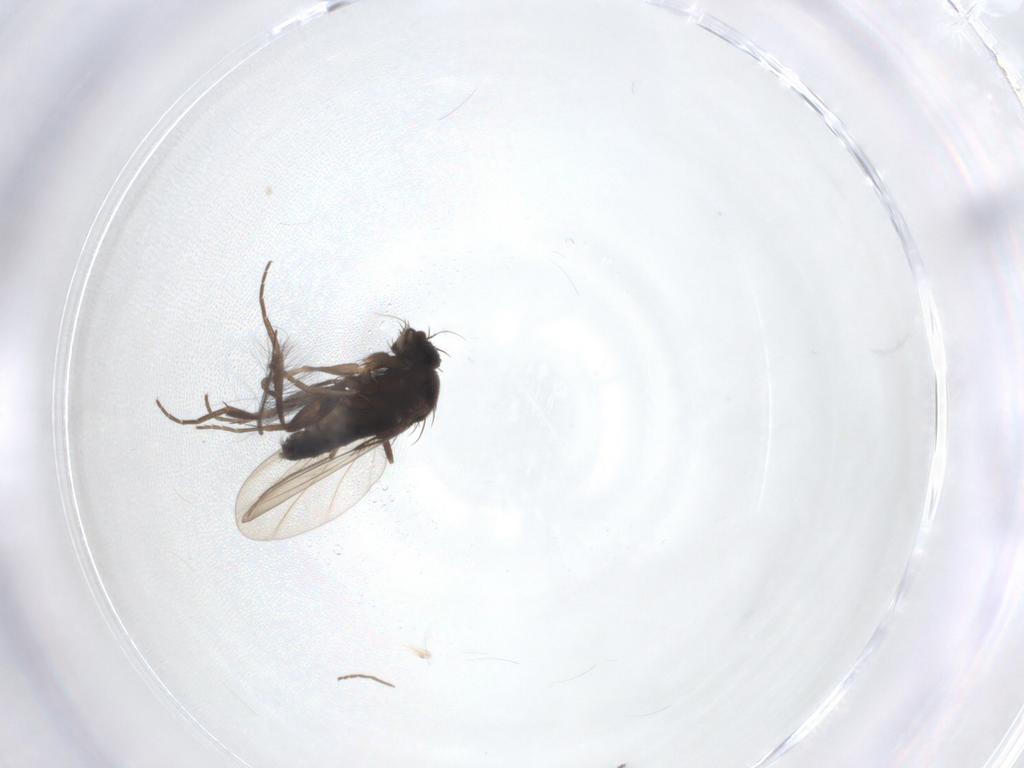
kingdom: Animalia
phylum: Arthropoda
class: Insecta
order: Diptera
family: Phoridae
